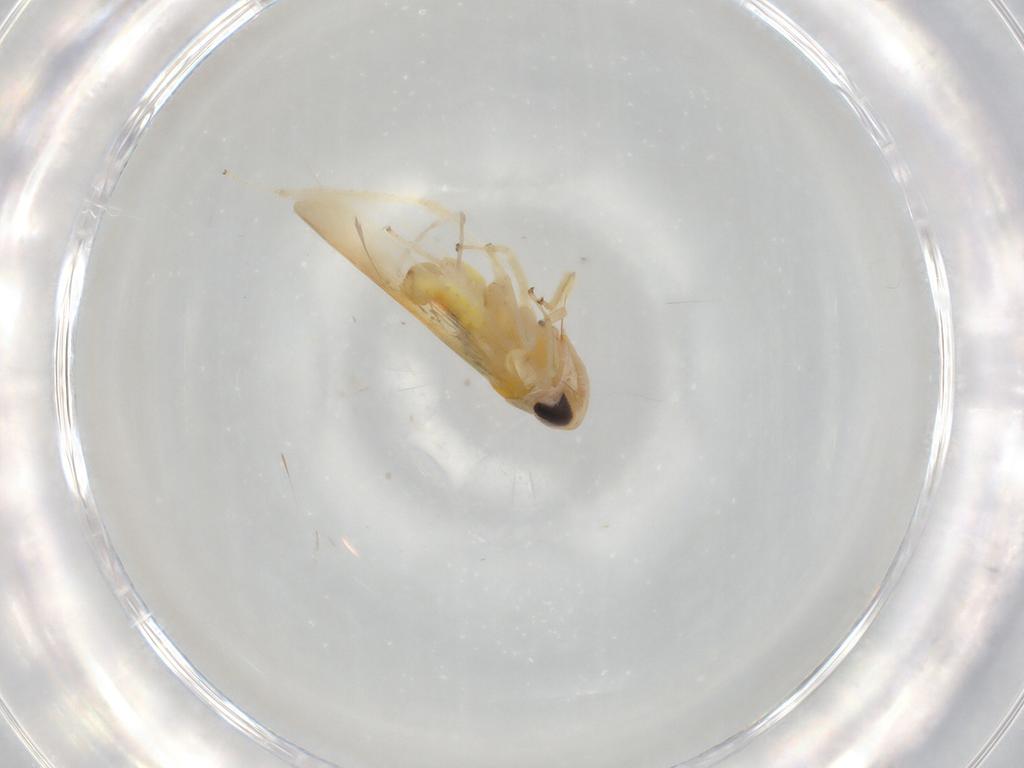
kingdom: Animalia
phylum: Arthropoda
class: Insecta
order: Hemiptera
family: Cicadellidae
